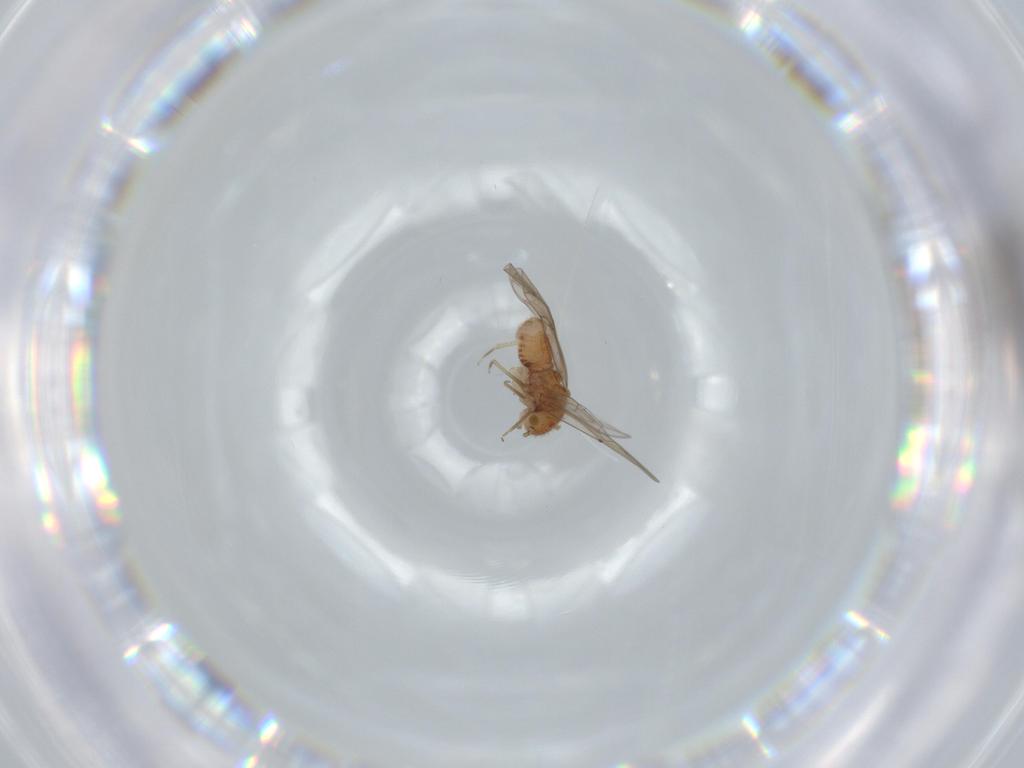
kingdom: Animalia
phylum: Arthropoda
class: Insecta
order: Psocodea
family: Ectopsocidae
